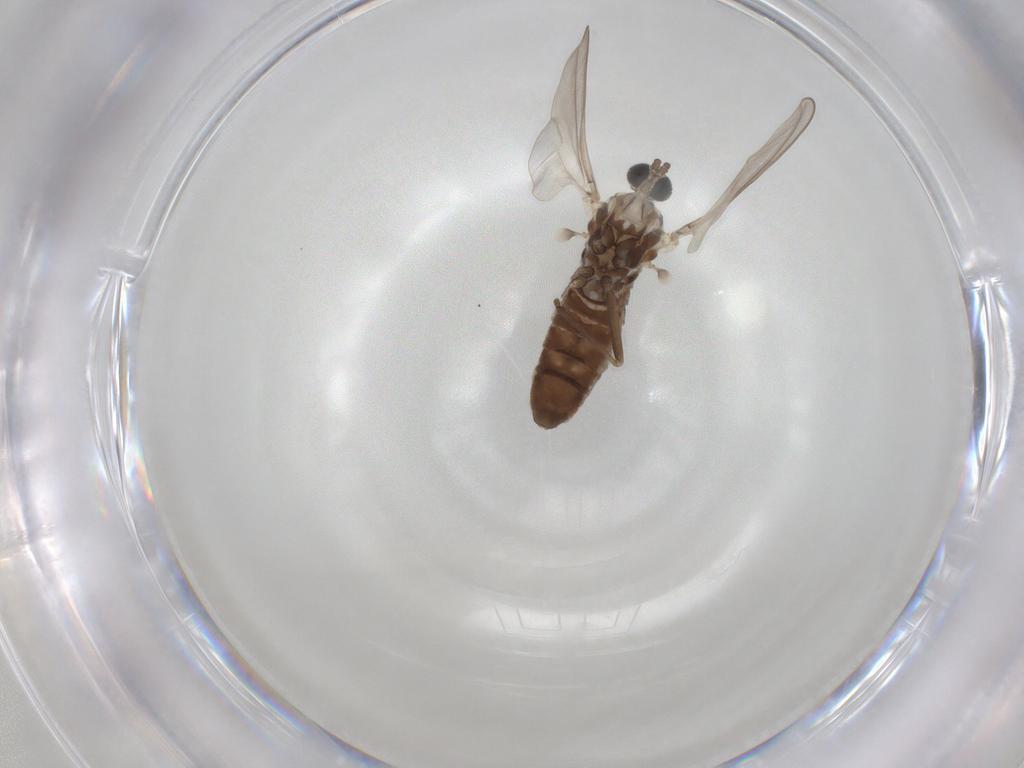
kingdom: Animalia
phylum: Arthropoda
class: Insecta
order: Diptera
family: Cecidomyiidae
